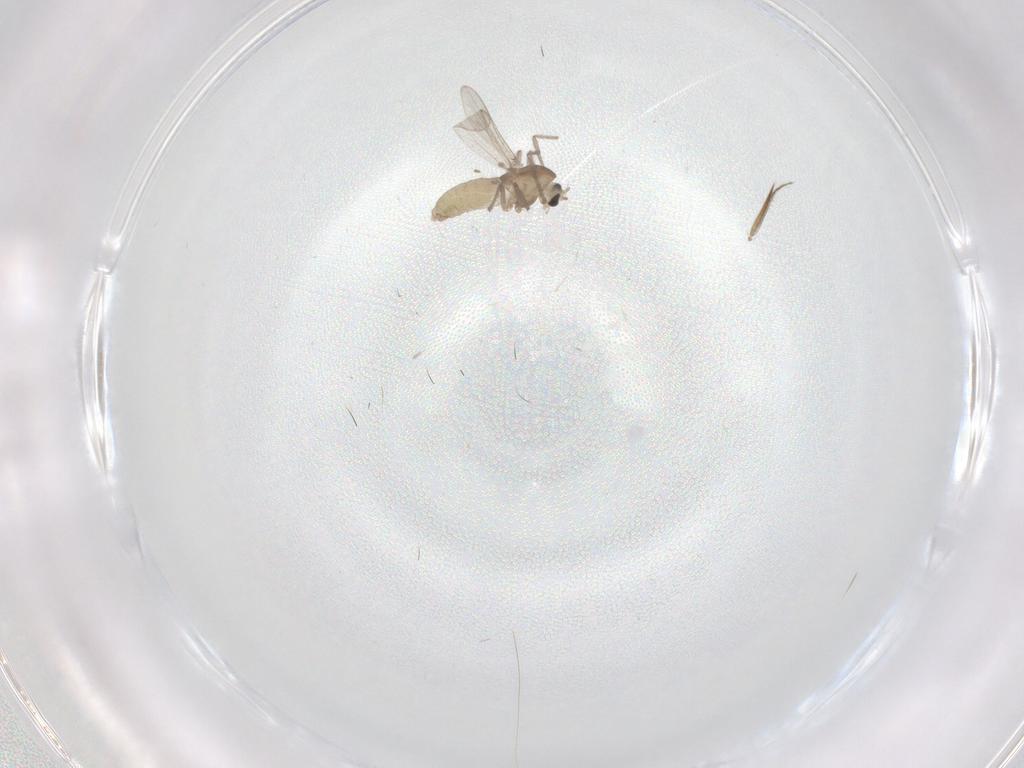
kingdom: Animalia
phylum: Arthropoda
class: Insecta
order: Diptera
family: Chironomidae
